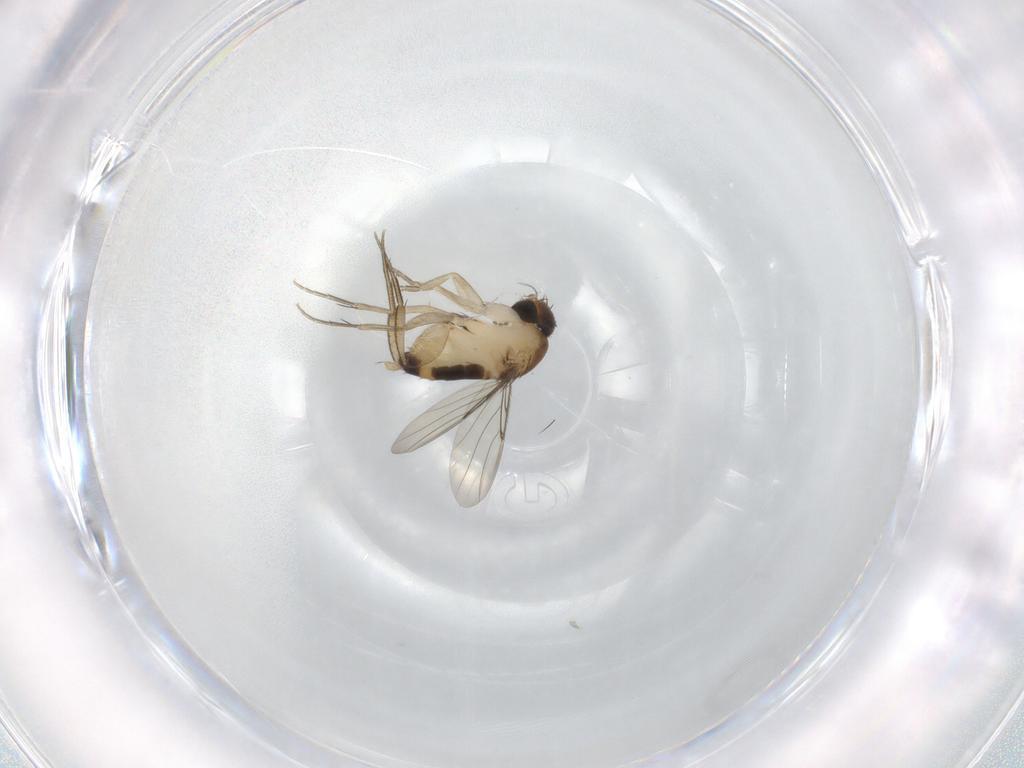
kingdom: Animalia
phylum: Arthropoda
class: Insecta
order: Diptera
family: Phoridae
